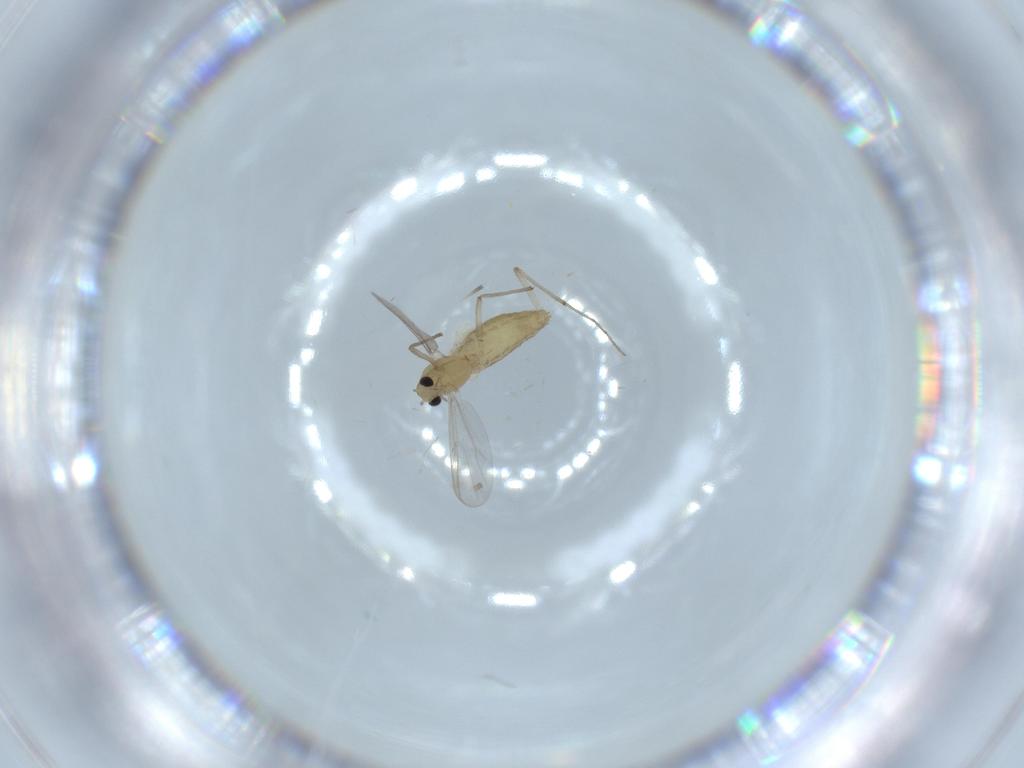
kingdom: Animalia
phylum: Arthropoda
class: Insecta
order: Diptera
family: Chironomidae
